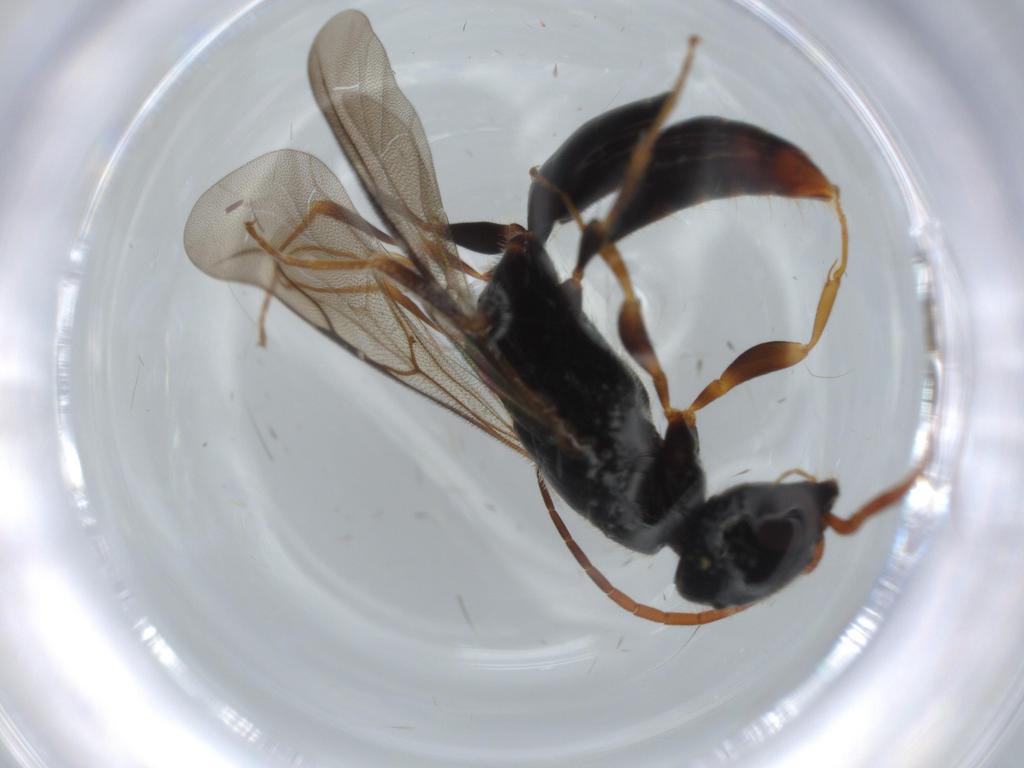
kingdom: Animalia
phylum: Arthropoda
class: Insecta
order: Hymenoptera
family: Bethylidae
